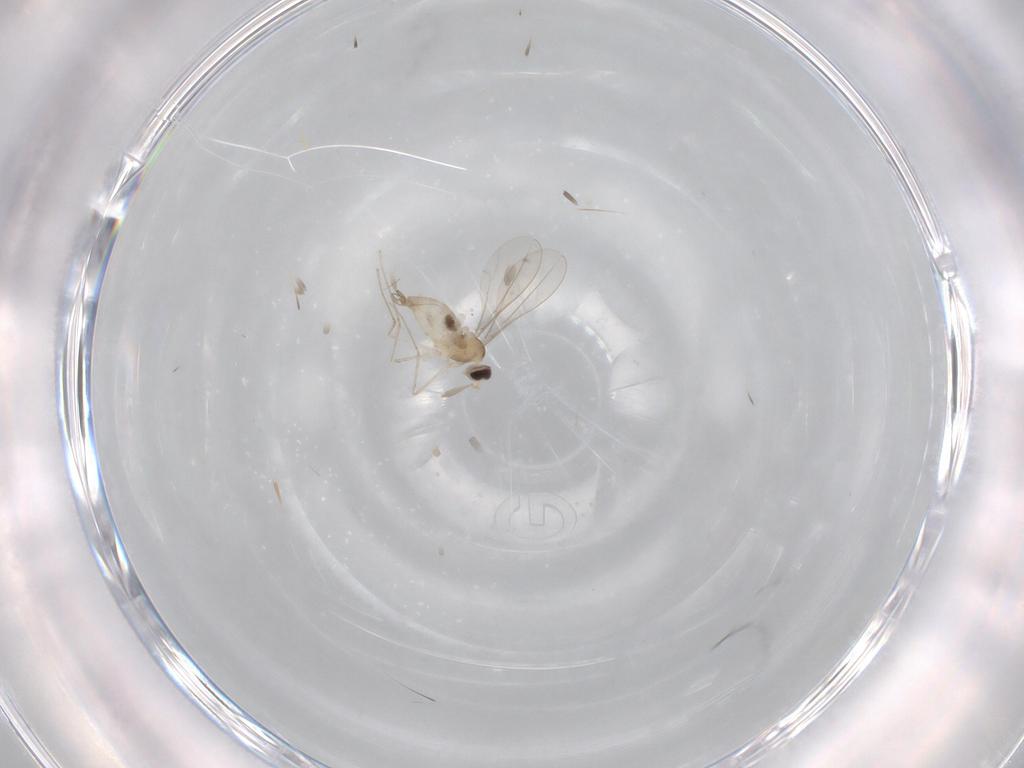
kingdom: Animalia
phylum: Arthropoda
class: Insecta
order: Diptera
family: Cecidomyiidae
